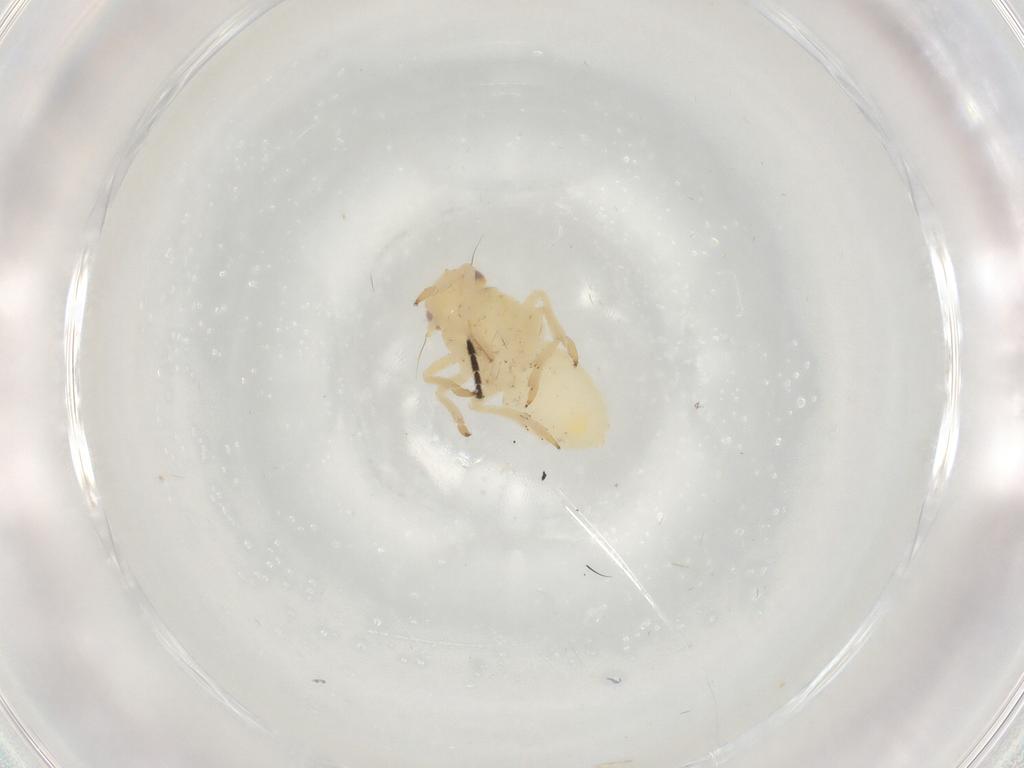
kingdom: Animalia
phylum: Arthropoda
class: Insecta
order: Hemiptera
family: Caliscelidae
